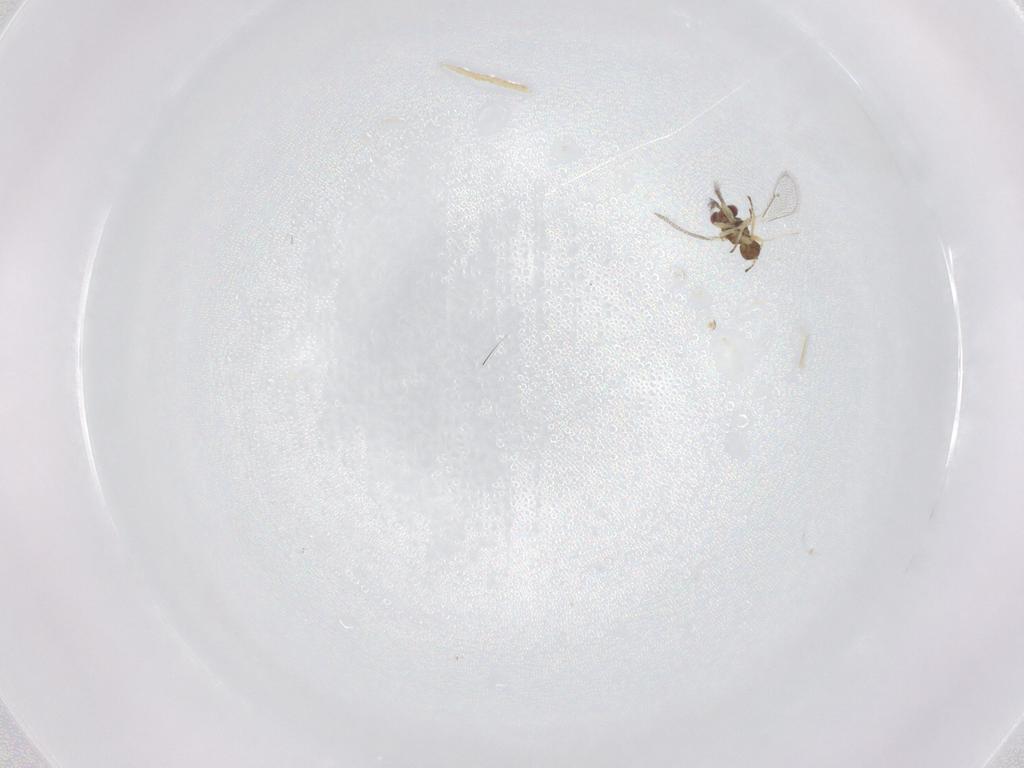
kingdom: Animalia
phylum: Arthropoda
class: Insecta
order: Hymenoptera
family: Eulophidae
